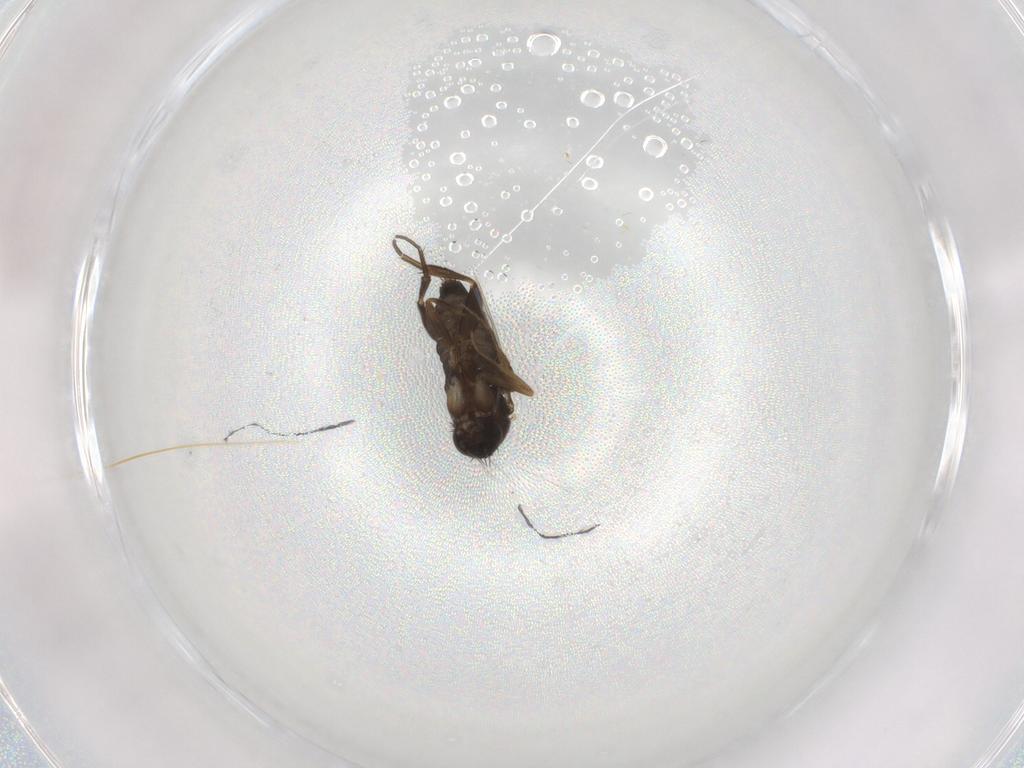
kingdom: Animalia
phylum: Arthropoda
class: Insecta
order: Diptera
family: Phoridae
